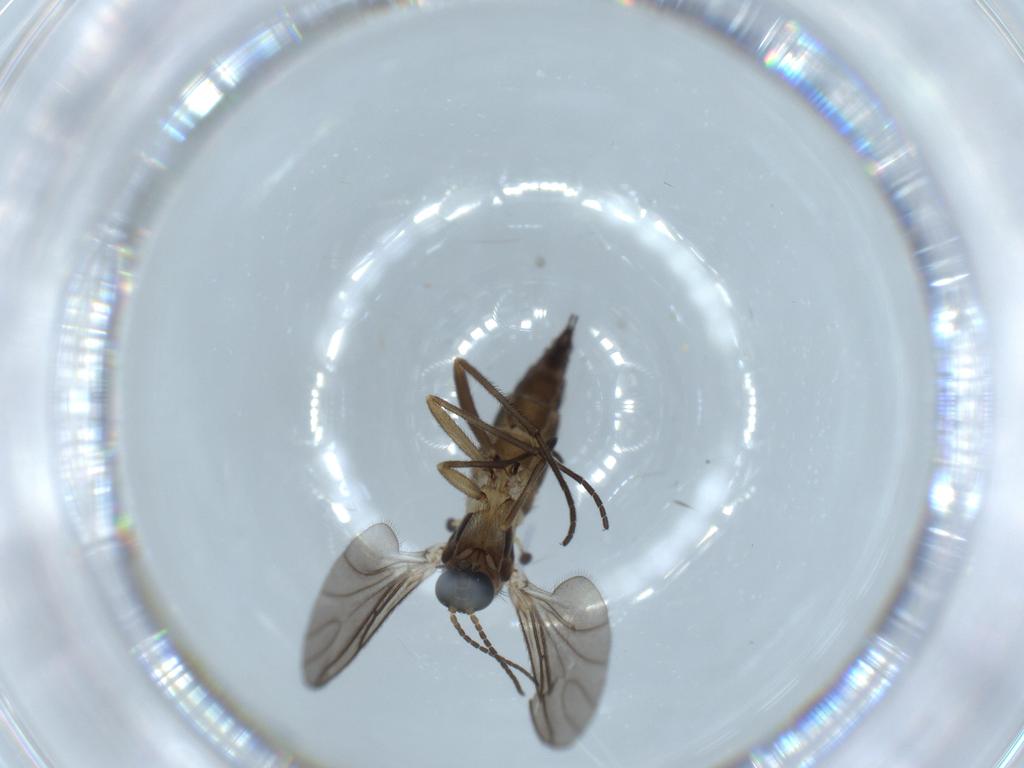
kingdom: Animalia
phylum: Arthropoda
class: Insecta
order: Diptera
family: Sciaridae
